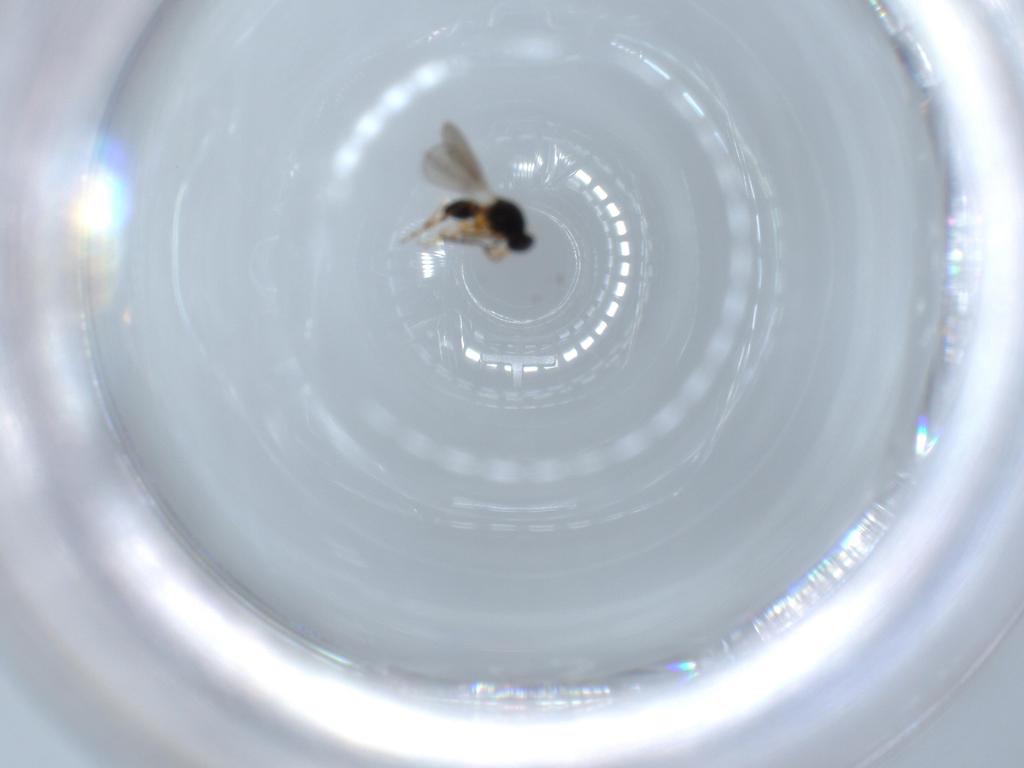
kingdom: Animalia
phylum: Arthropoda
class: Insecta
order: Hymenoptera
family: Platygastridae
